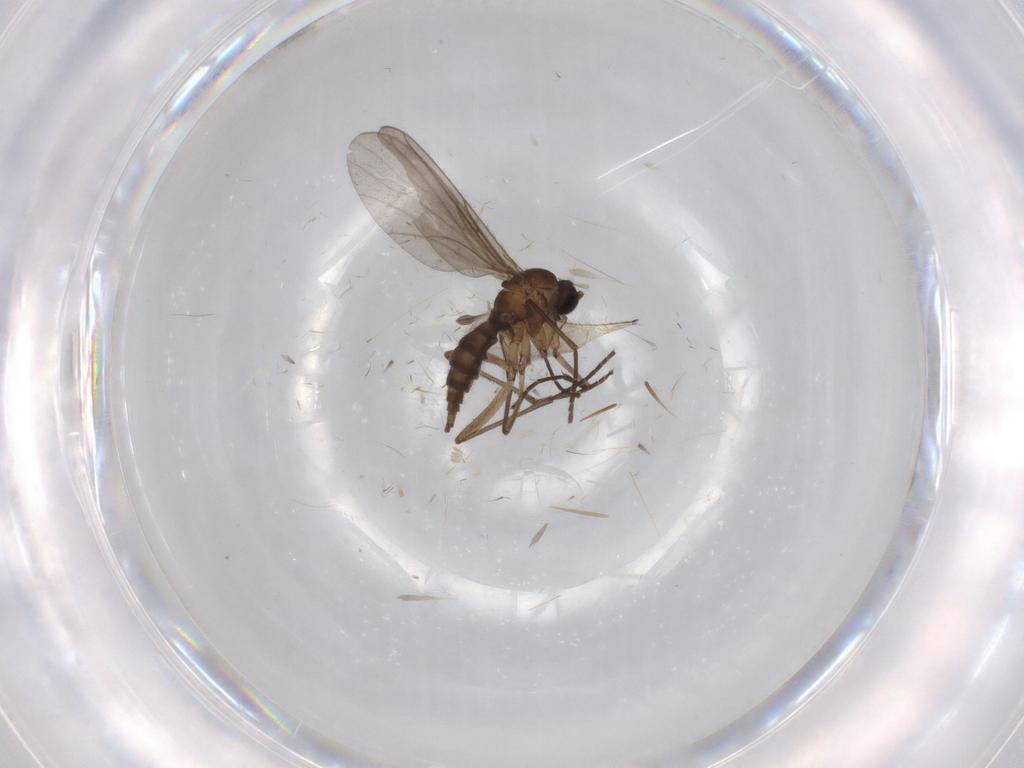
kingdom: Animalia
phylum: Arthropoda
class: Insecta
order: Diptera
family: Sciaridae
